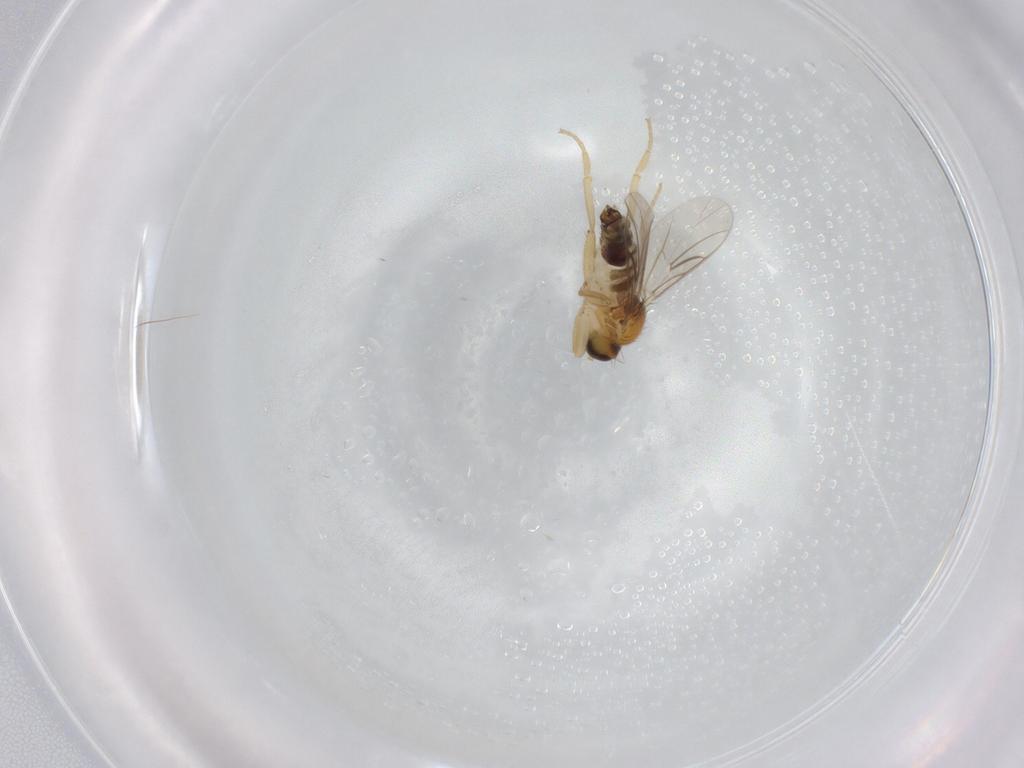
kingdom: Animalia
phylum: Arthropoda
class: Insecta
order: Diptera
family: Hybotidae
